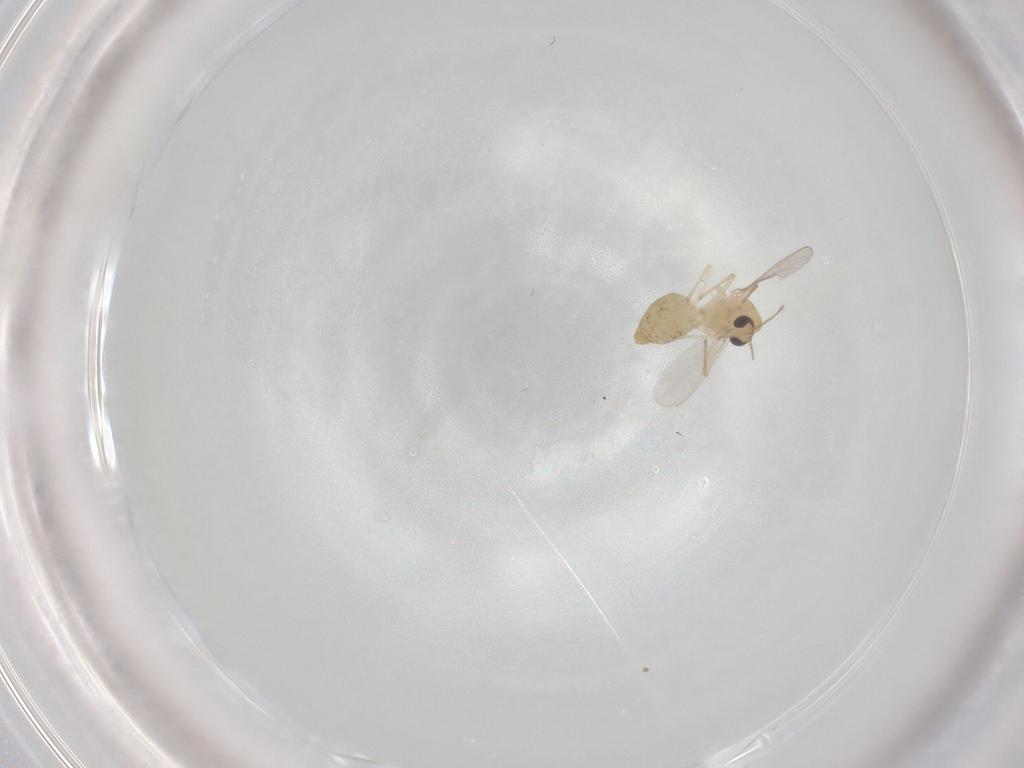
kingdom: Animalia
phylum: Arthropoda
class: Insecta
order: Diptera
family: Chironomidae
